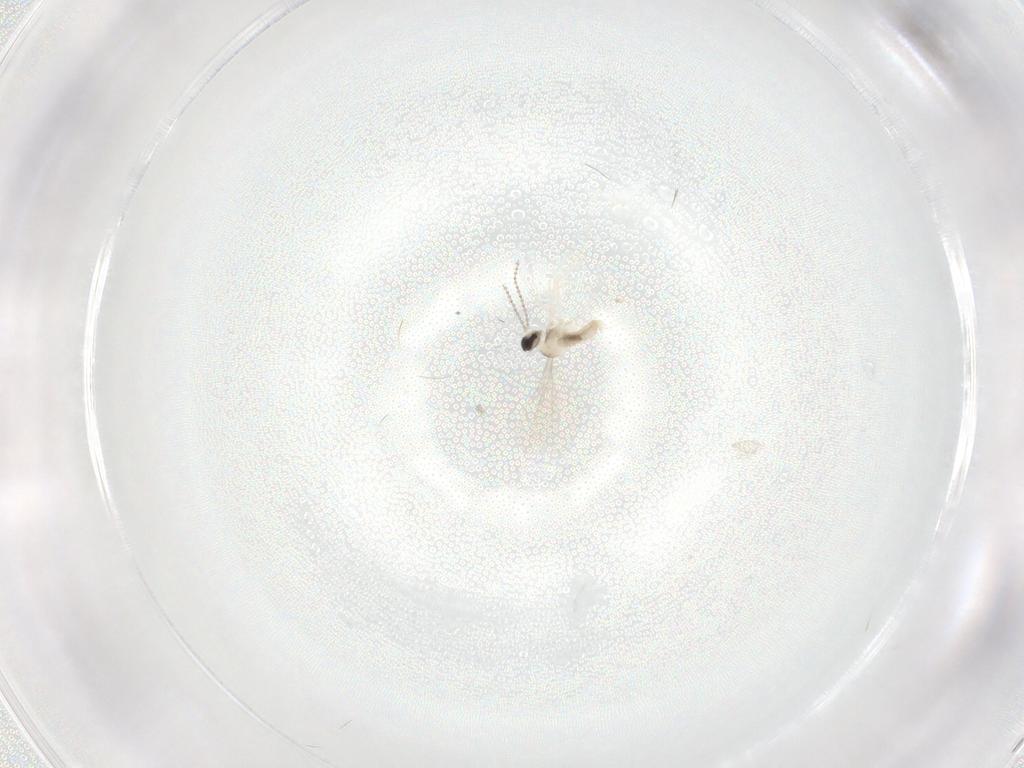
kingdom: Animalia
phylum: Arthropoda
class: Insecta
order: Diptera
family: Cecidomyiidae
